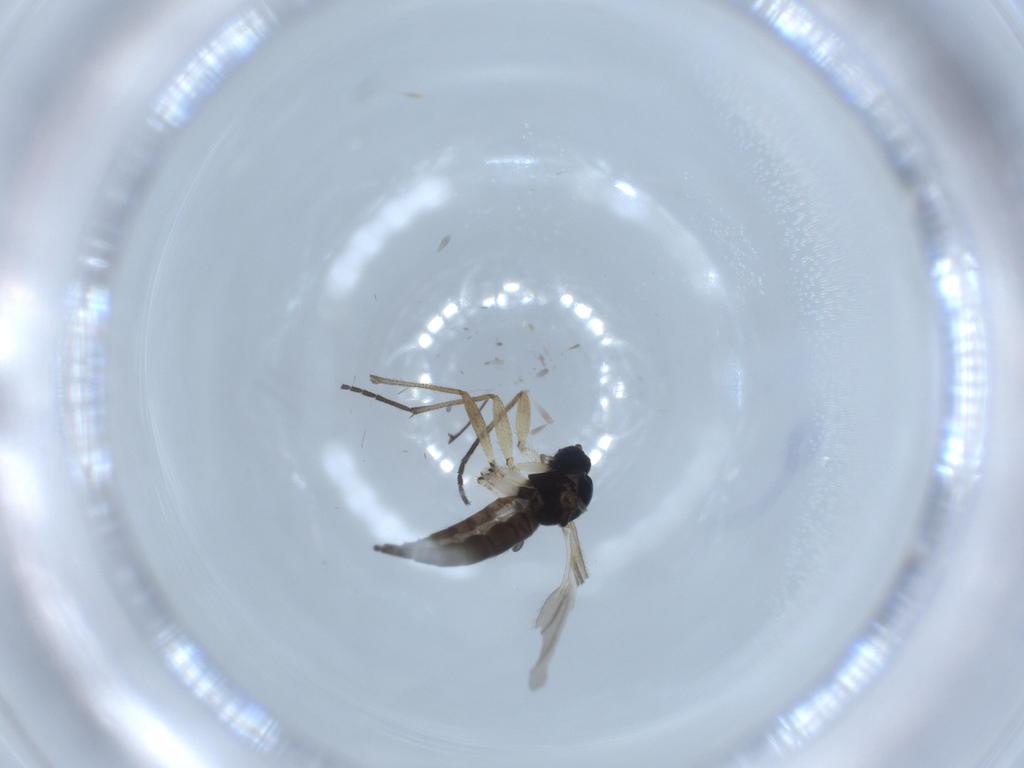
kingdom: Animalia
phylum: Arthropoda
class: Insecta
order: Diptera
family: Sciaridae
